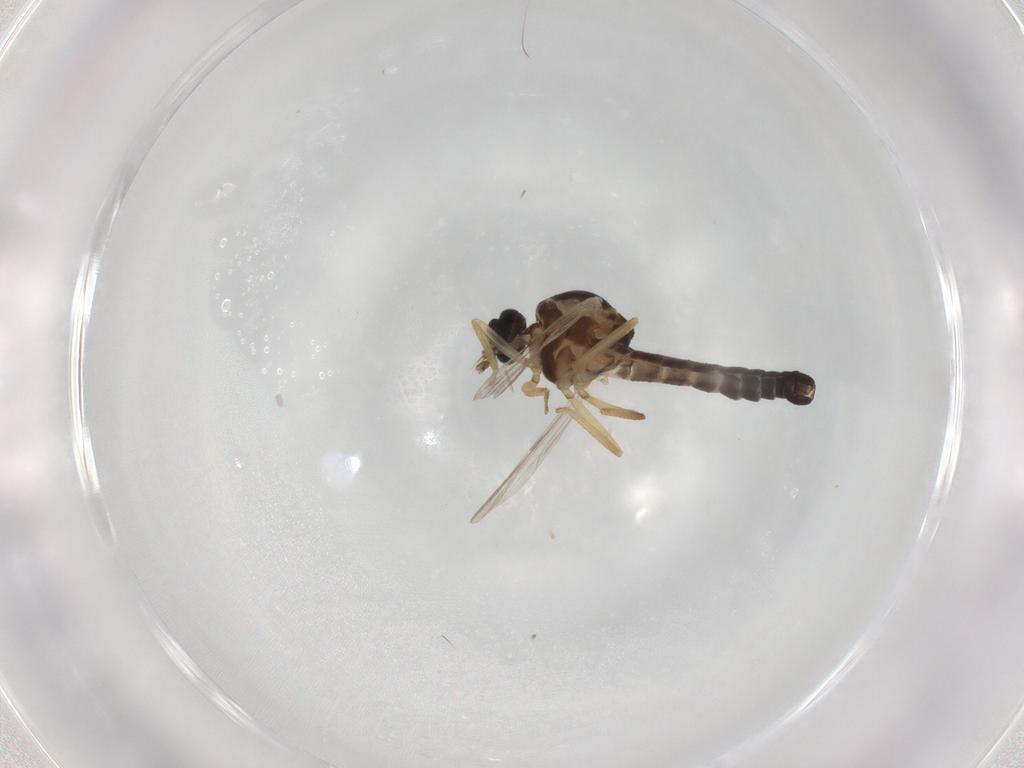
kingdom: Animalia
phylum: Arthropoda
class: Insecta
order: Diptera
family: Ceratopogonidae
